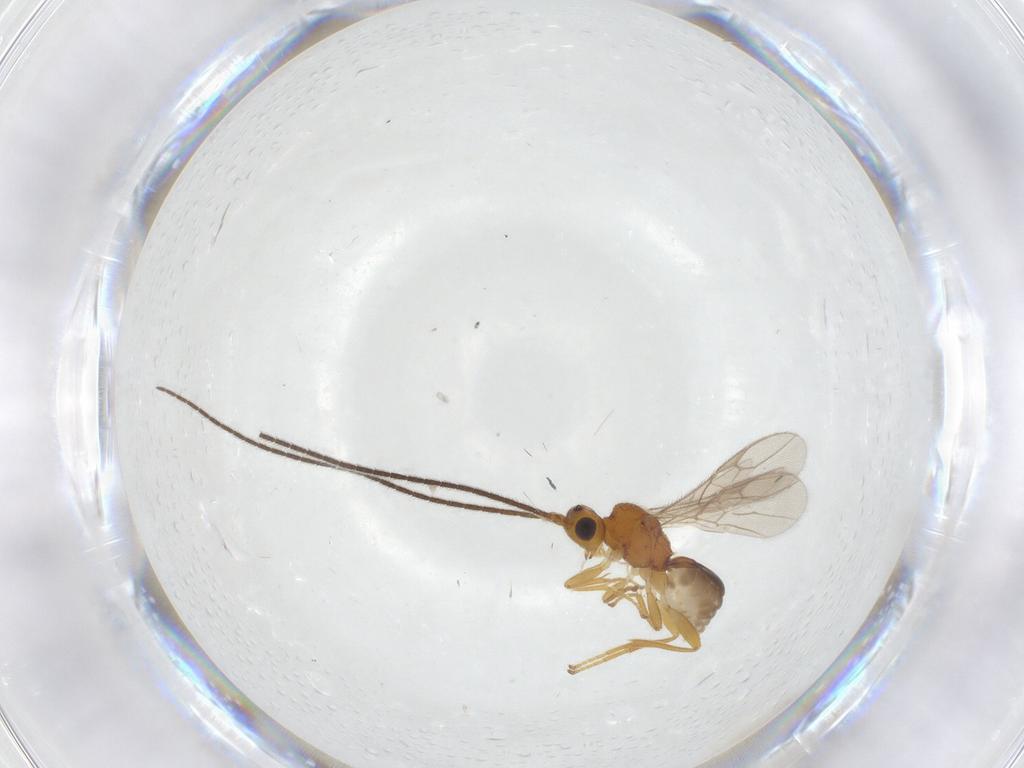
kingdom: Animalia
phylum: Arthropoda
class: Insecta
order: Hymenoptera
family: Braconidae
